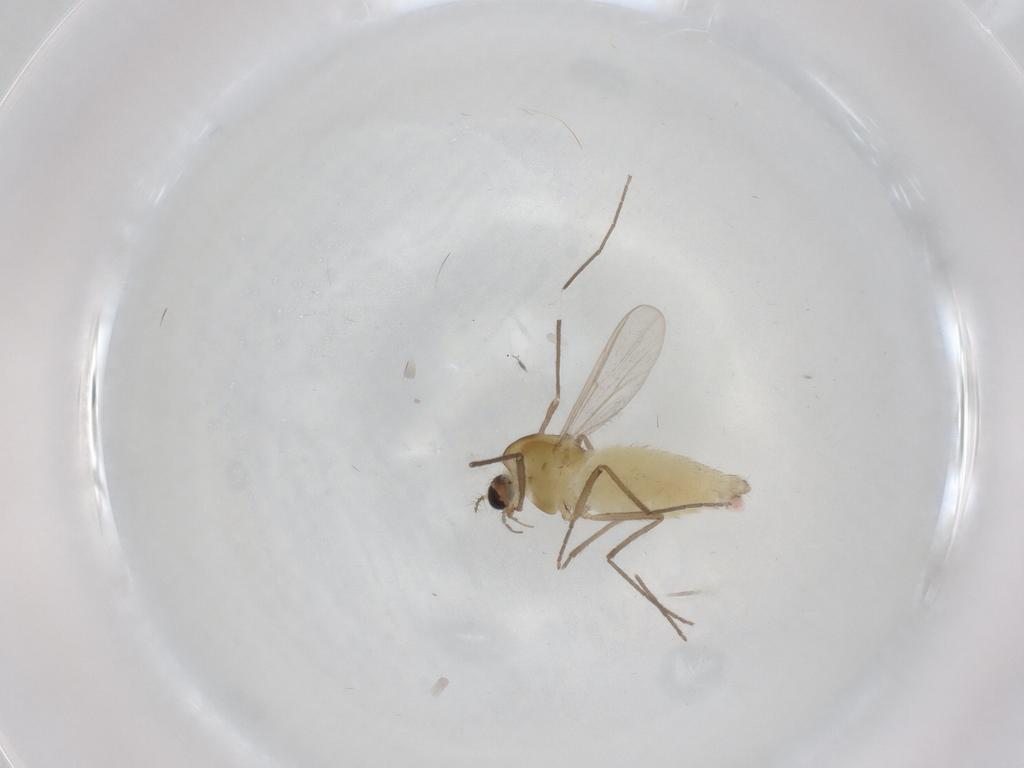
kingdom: Animalia
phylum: Arthropoda
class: Insecta
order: Diptera
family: Chironomidae
